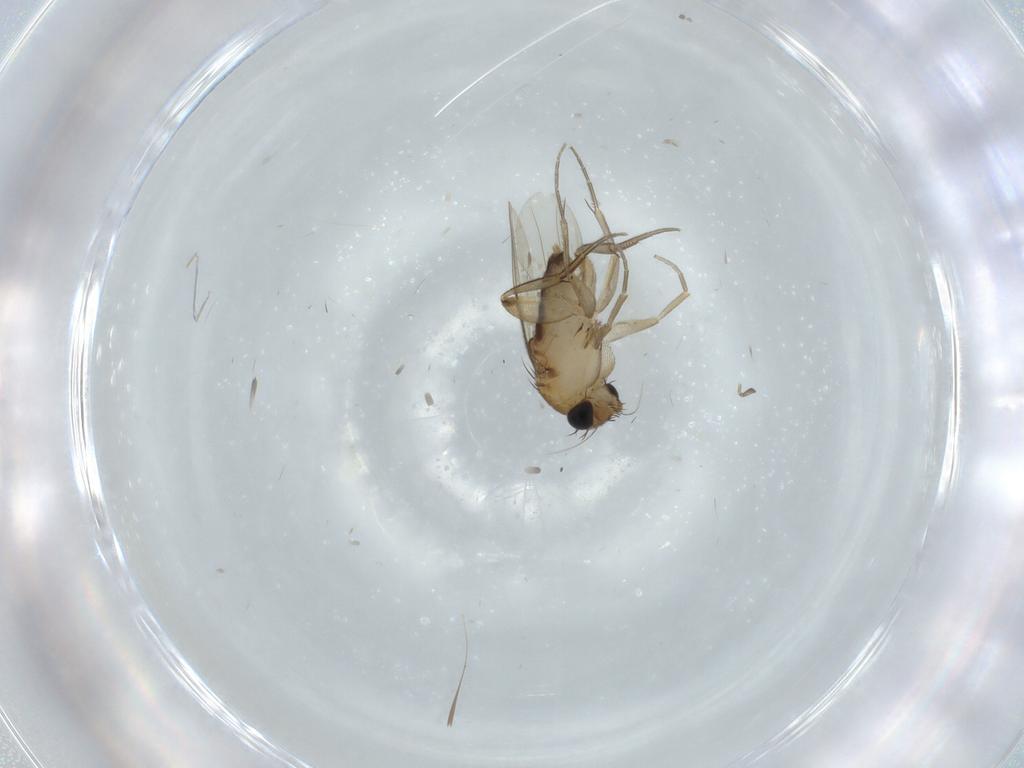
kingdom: Animalia
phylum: Arthropoda
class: Insecta
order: Diptera
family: Phoridae
